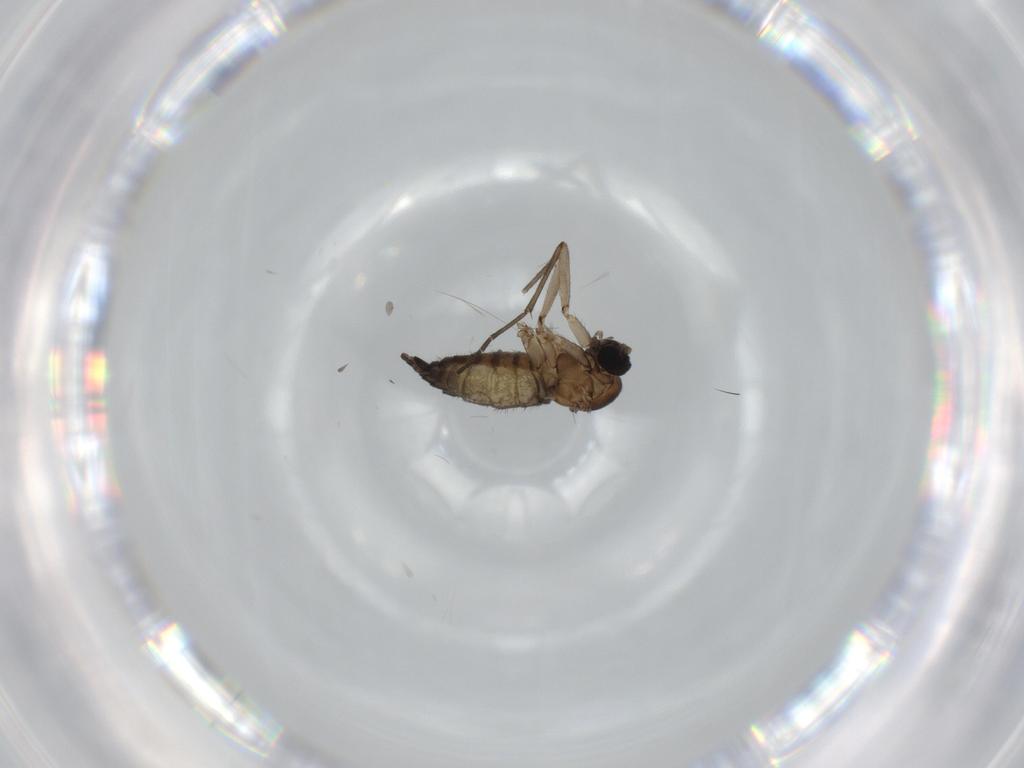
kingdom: Animalia
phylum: Arthropoda
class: Insecta
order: Diptera
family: Sciaridae
